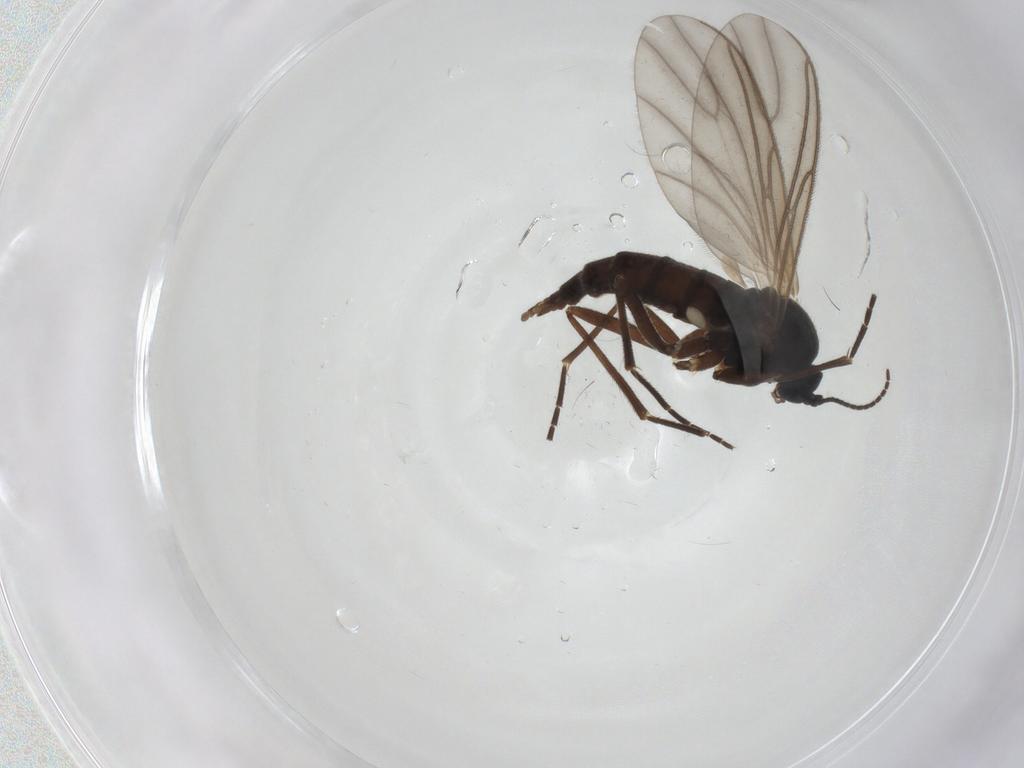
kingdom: Animalia
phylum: Arthropoda
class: Insecta
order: Diptera
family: Sciaridae
